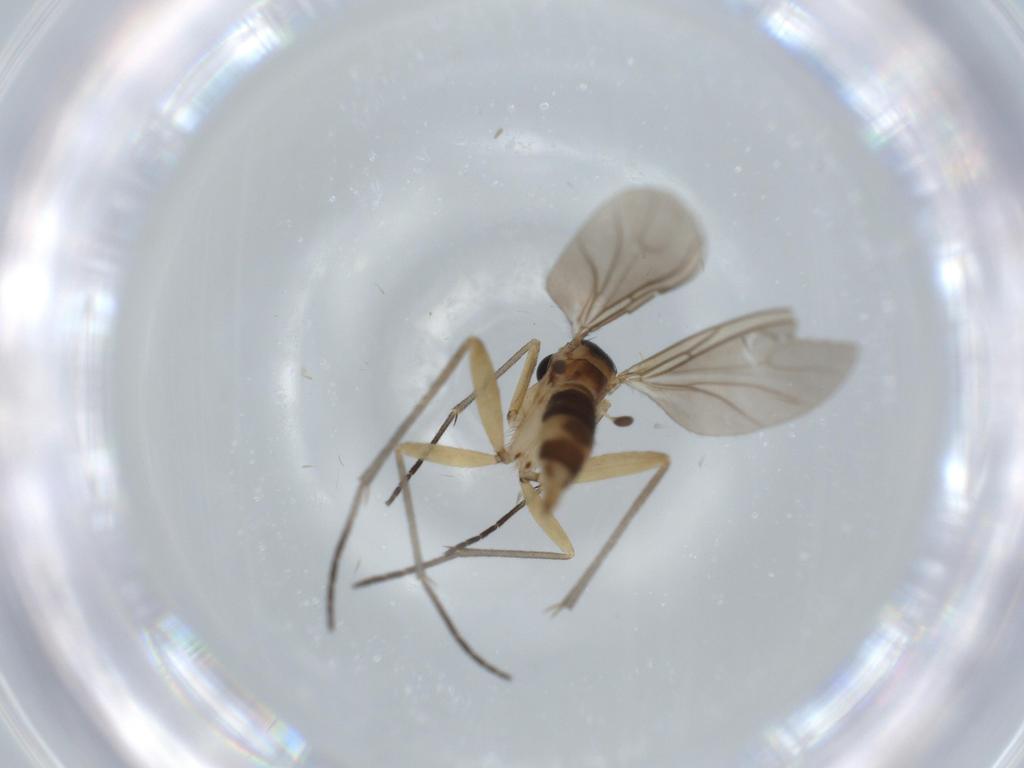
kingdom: Animalia
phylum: Arthropoda
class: Insecta
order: Diptera
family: Sciaridae
